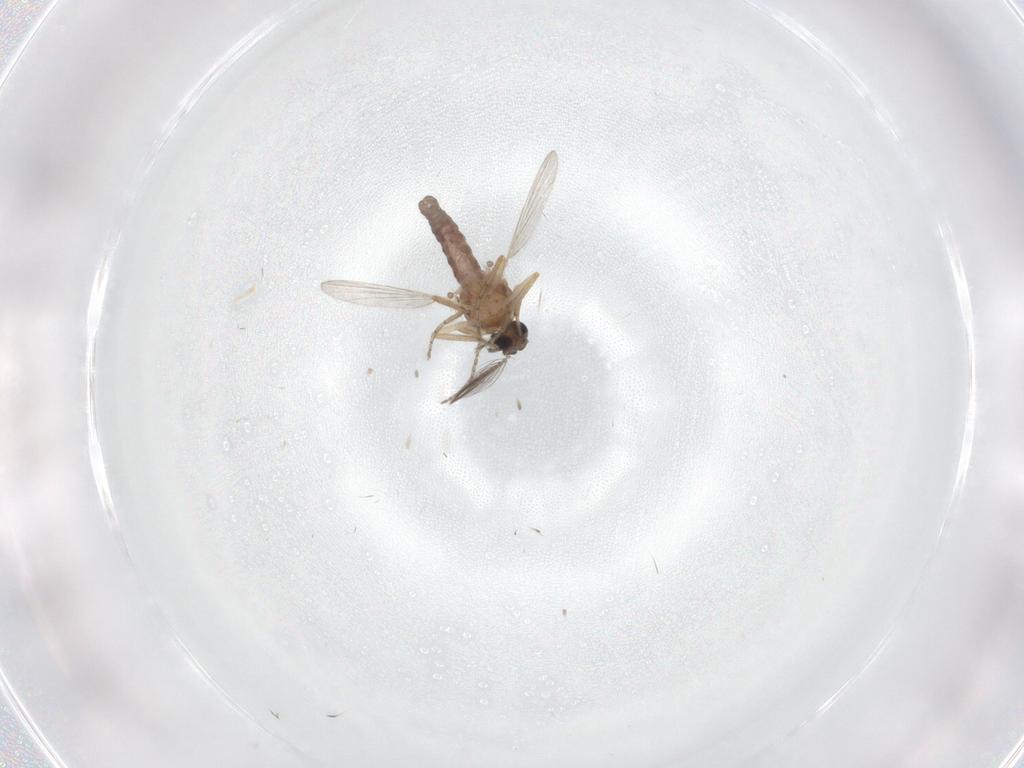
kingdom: Animalia
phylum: Arthropoda
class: Insecta
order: Diptera
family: Ceratopogonidae
